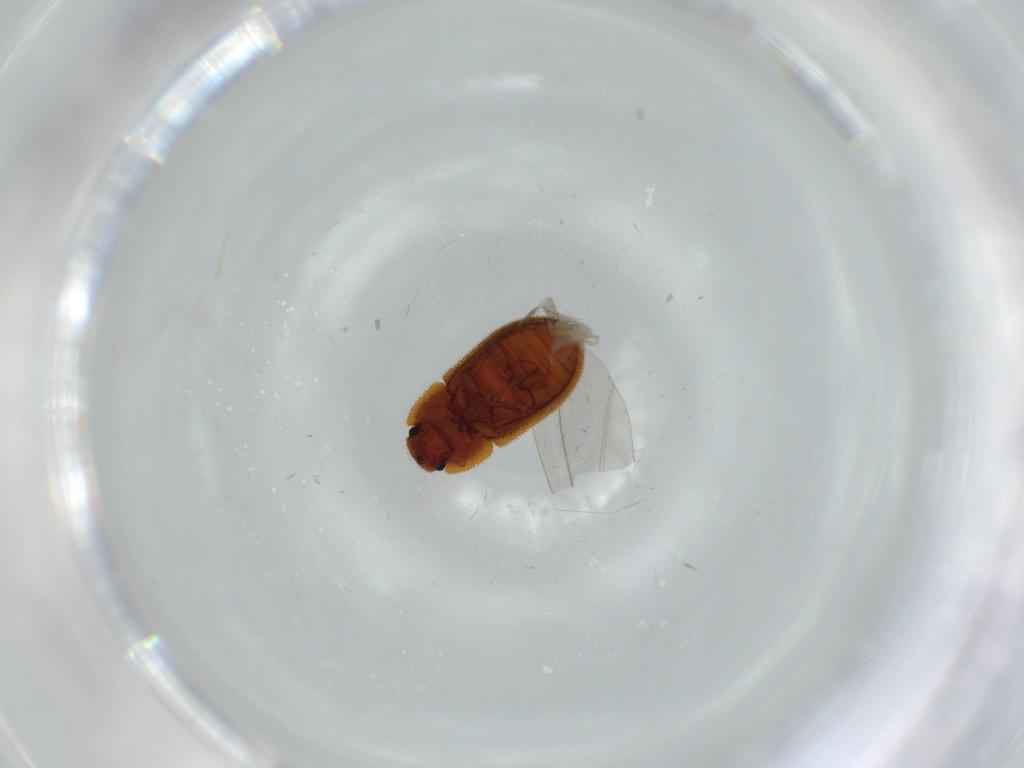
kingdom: Animalia
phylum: Arthropoda
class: Insecta
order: Coleoptera
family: Zopheridae
